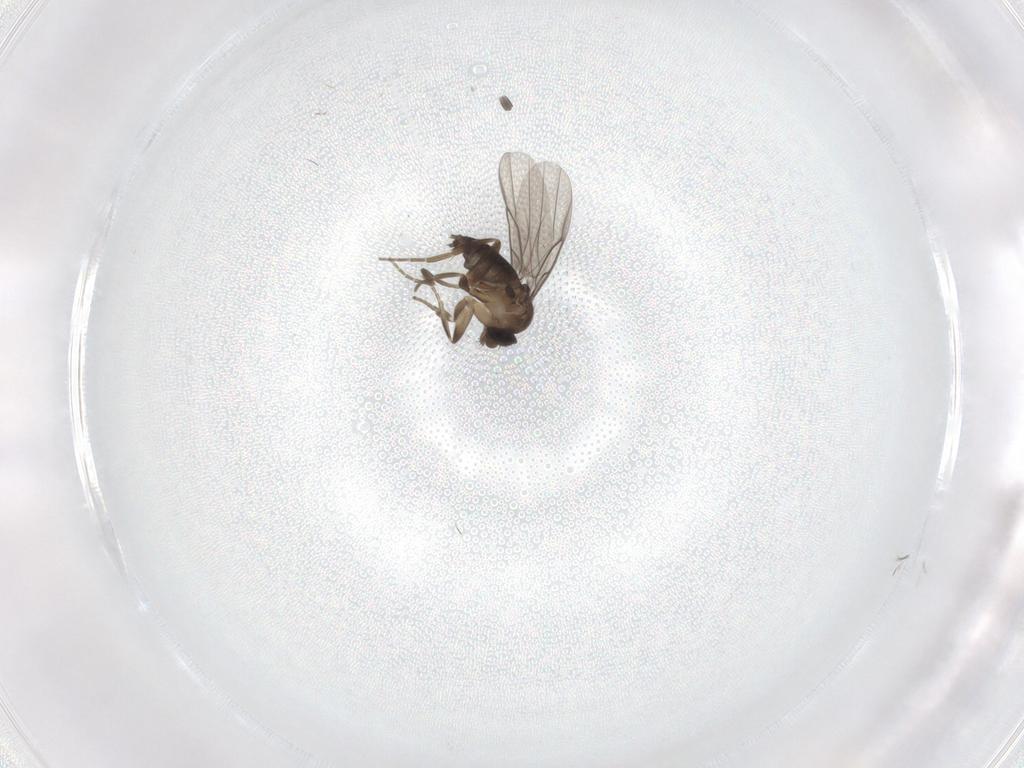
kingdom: Animalia
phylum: Arthropoda
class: Insecta
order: Diptera
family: Phoridae
